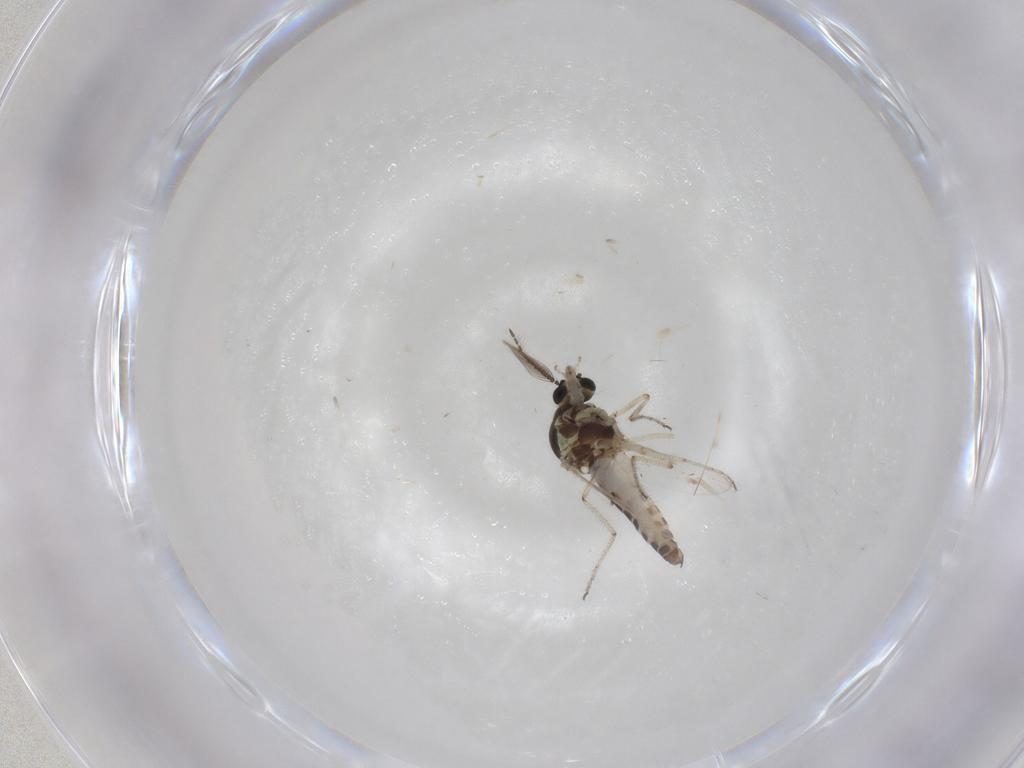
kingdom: Animalia
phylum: Arthropoda
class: Insecta
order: Diptera
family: Ceratopogonidae
